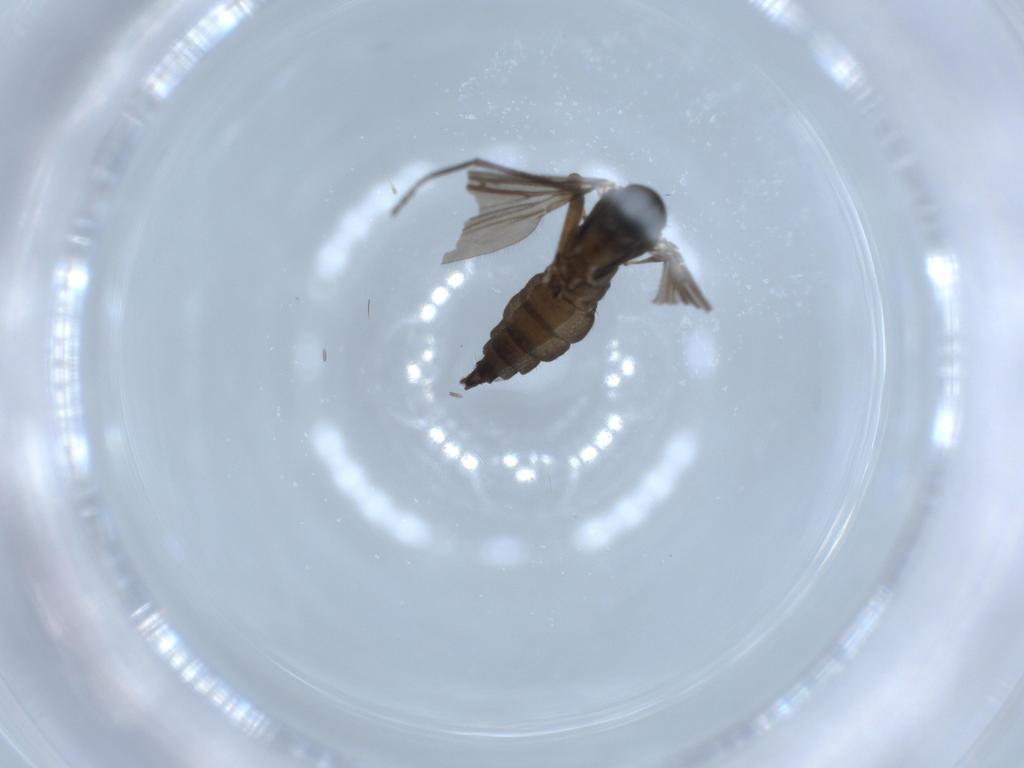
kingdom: Animalia
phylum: Arthropoda
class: Insecta
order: Diptera
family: Sciaridae
